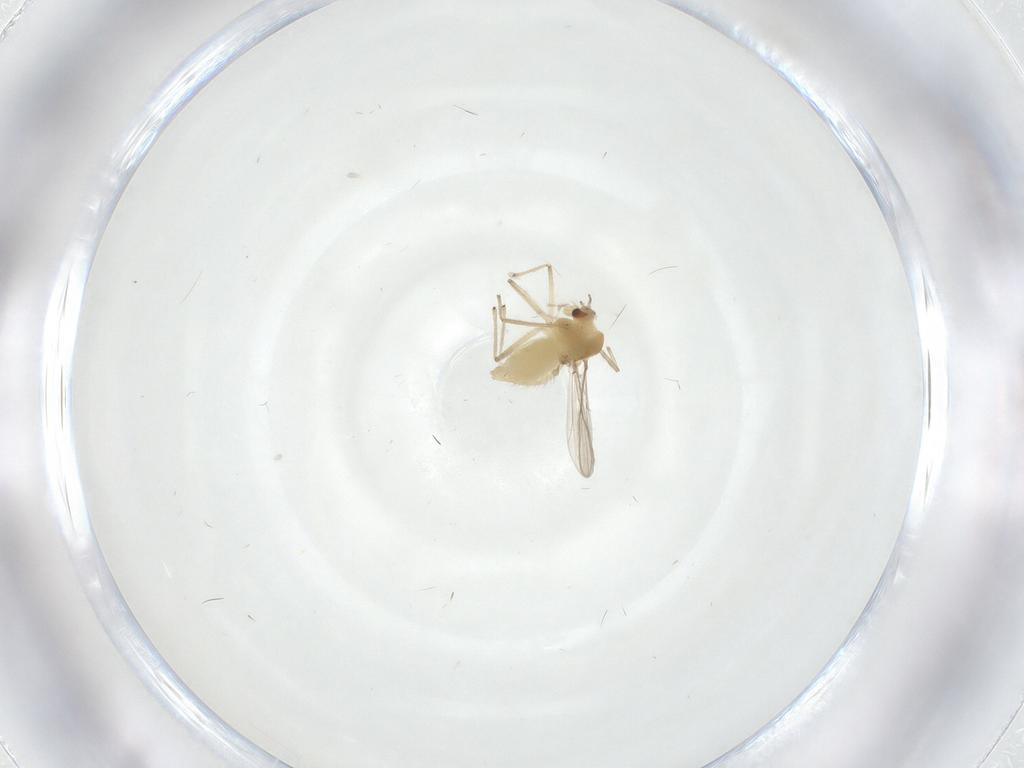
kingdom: Animalia
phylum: Arthropoda
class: Insecta
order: Diptera
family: Chironomidae
